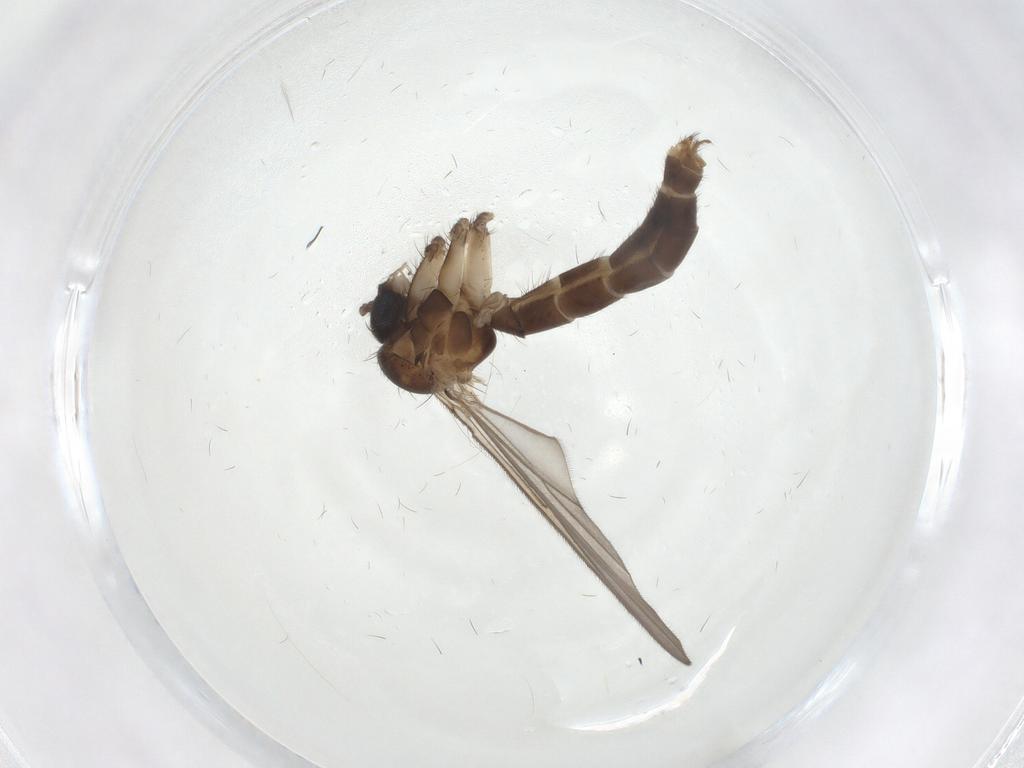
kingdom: Animalia
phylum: Arthropoda
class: Insecta
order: Diptera
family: Mycetophilidae
